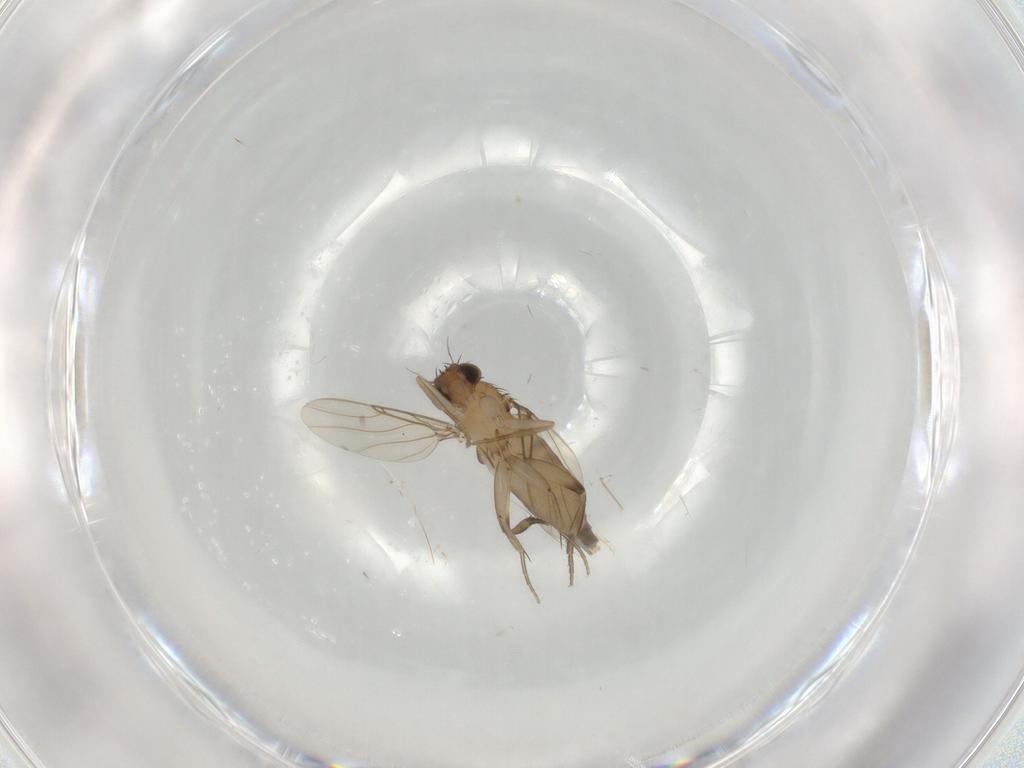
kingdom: Animalia
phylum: Arthropoda
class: Insecta
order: Diptera
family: Phoridae
